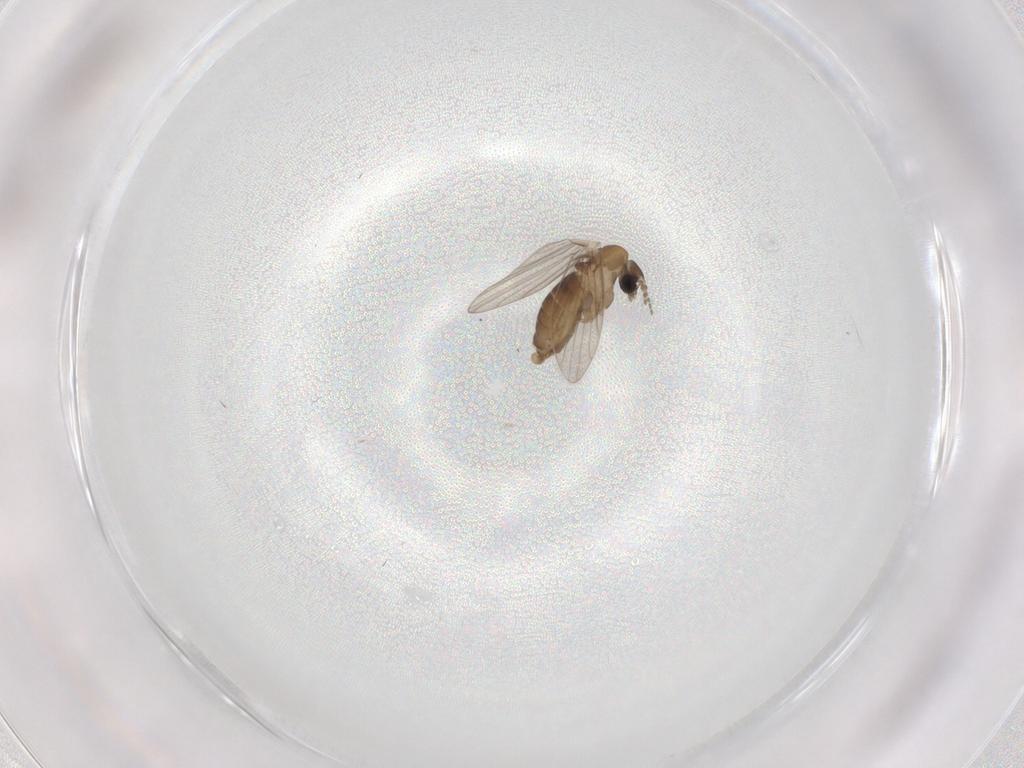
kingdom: Animalia
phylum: Arthropoda
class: Insecta
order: Diptera
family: Psychodidae
